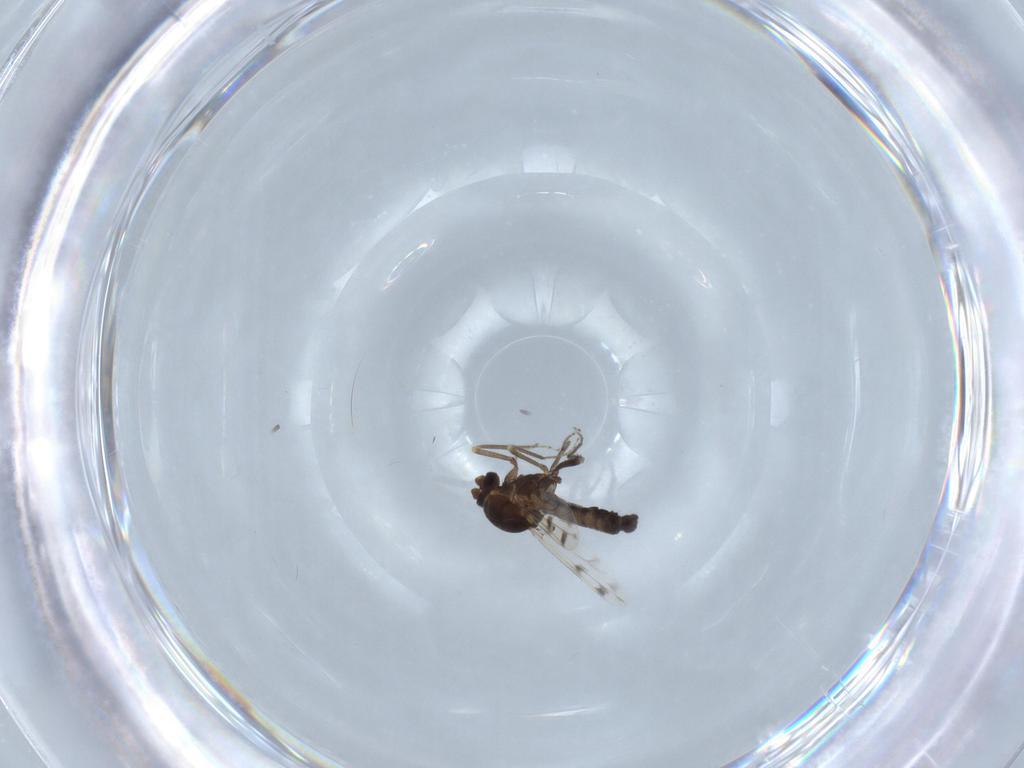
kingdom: Animalia
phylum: Arthropoda
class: Insecta
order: Diptera
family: Ceratopogonidae
